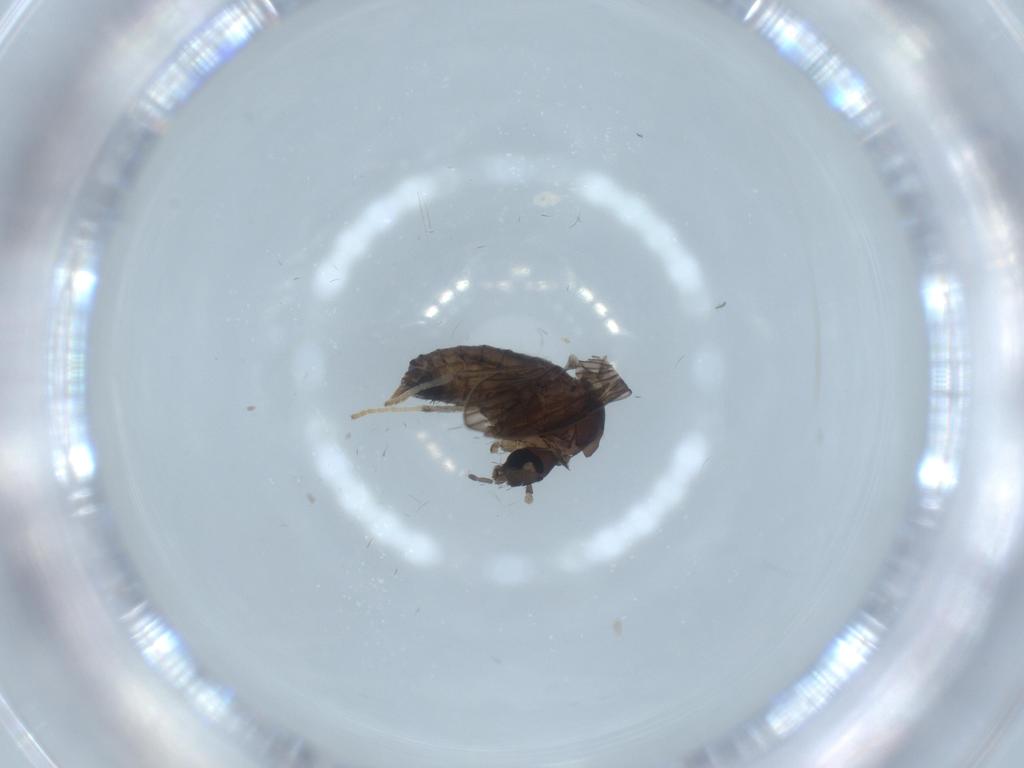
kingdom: Animalia
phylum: Arthropoda
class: Insecta
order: Diptera
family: Psychodidae
